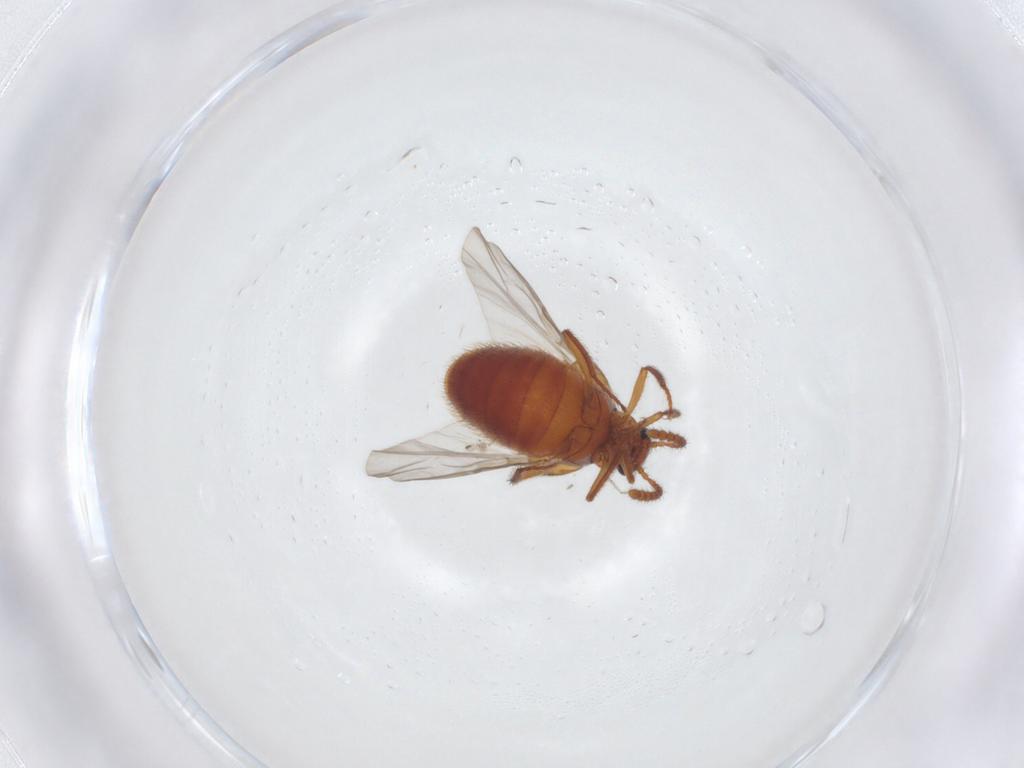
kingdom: Animalia
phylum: Arthropoda
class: Insecta
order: Coleoptera
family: Staphylinidae
